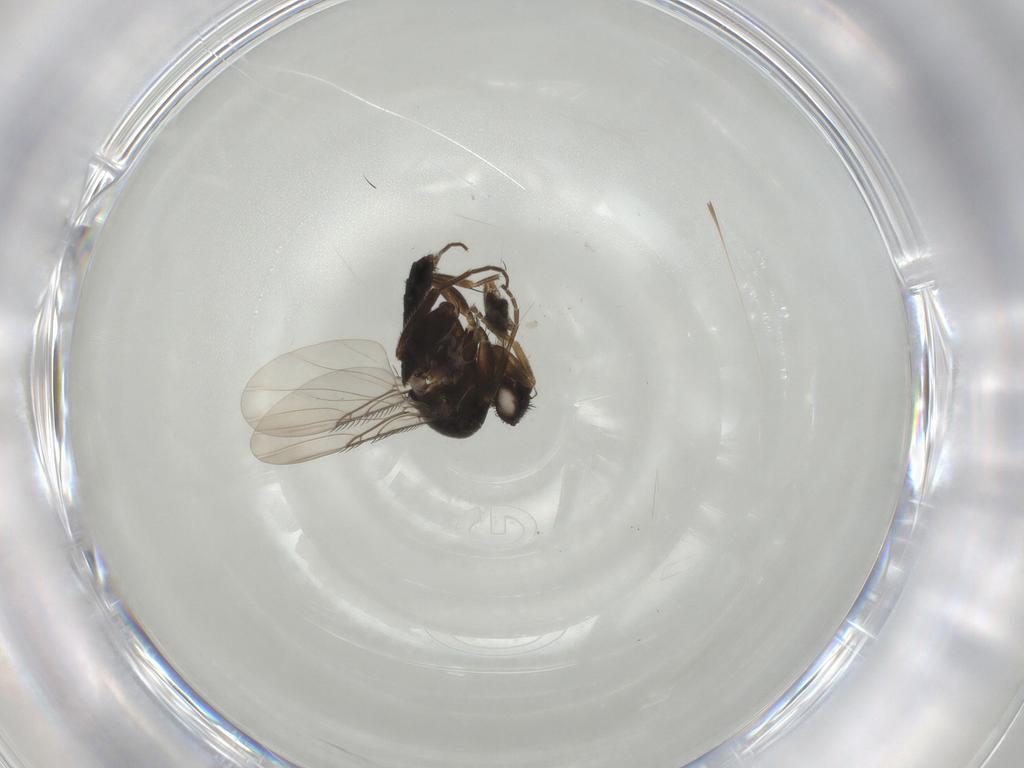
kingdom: Animalia
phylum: Arthropoda
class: Insecta
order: Diptera
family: Phoridae
